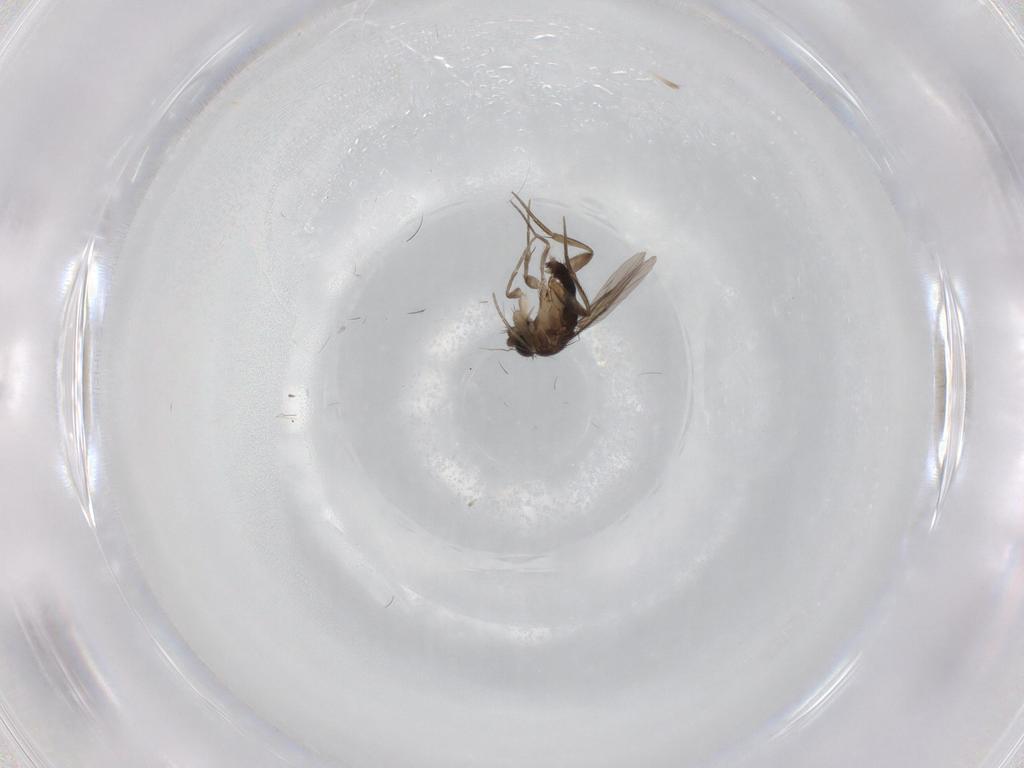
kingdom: Animalia
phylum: Arthropoda
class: Insecta
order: Diptera
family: Phoridae
